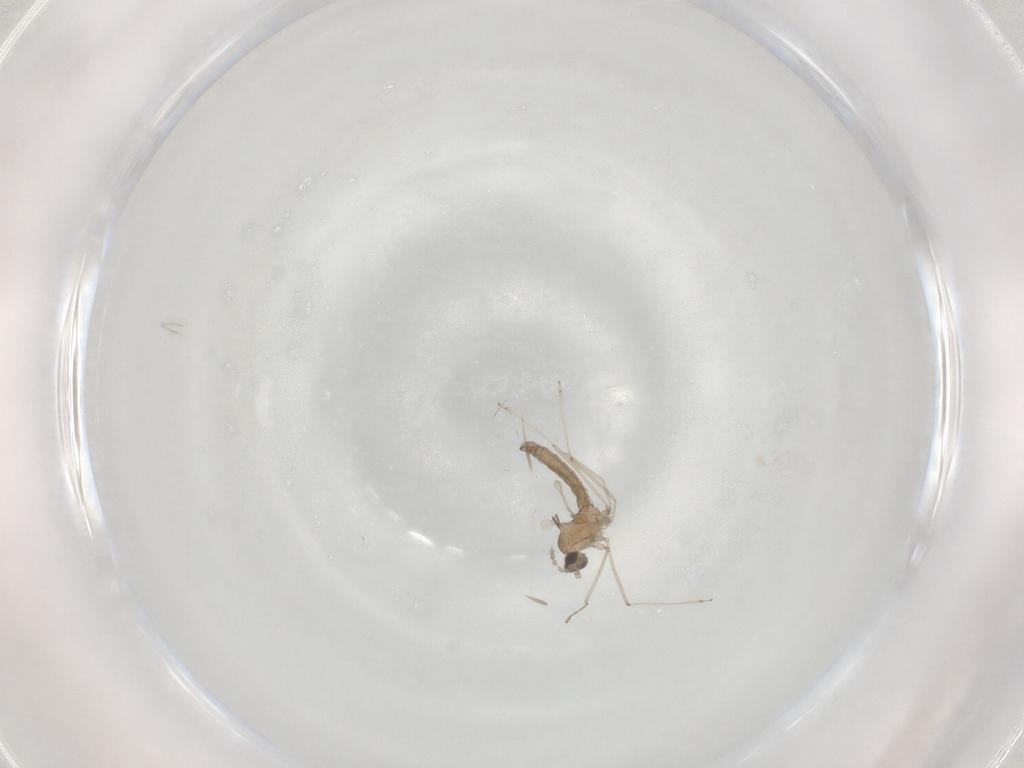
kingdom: Animalia
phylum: Arthropoda
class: Insecta
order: Diptera
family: Cecidomyiidae
